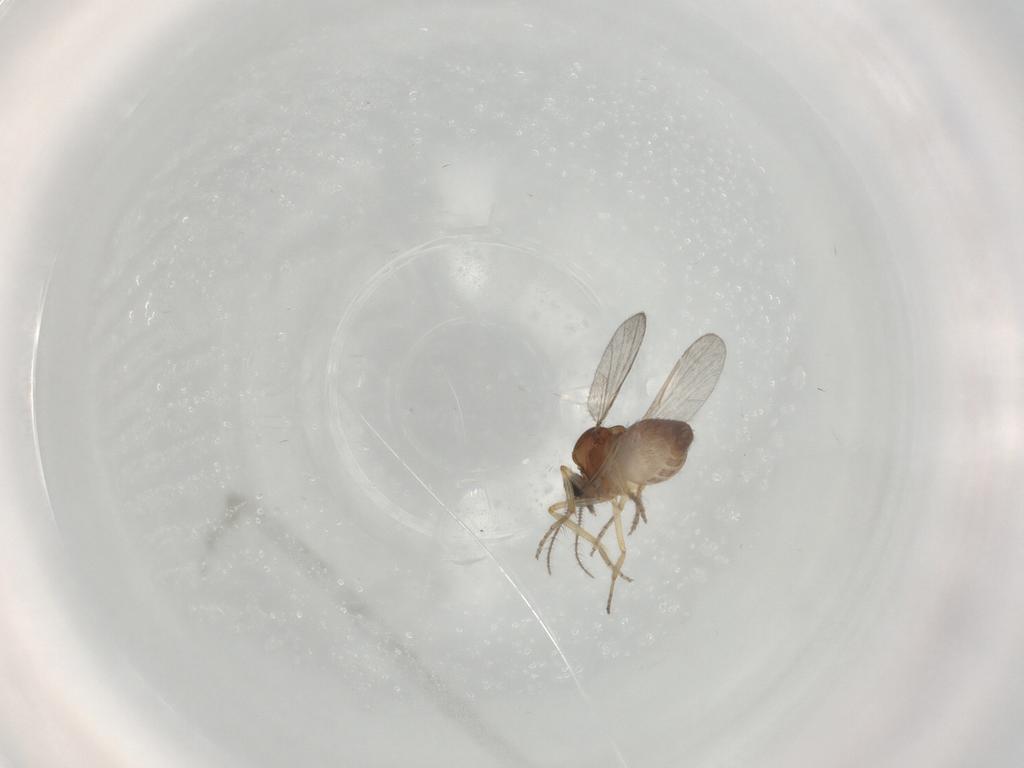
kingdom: Animalia
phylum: Arthropoda
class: Insecta
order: Diptera
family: Ceratopogonidae
